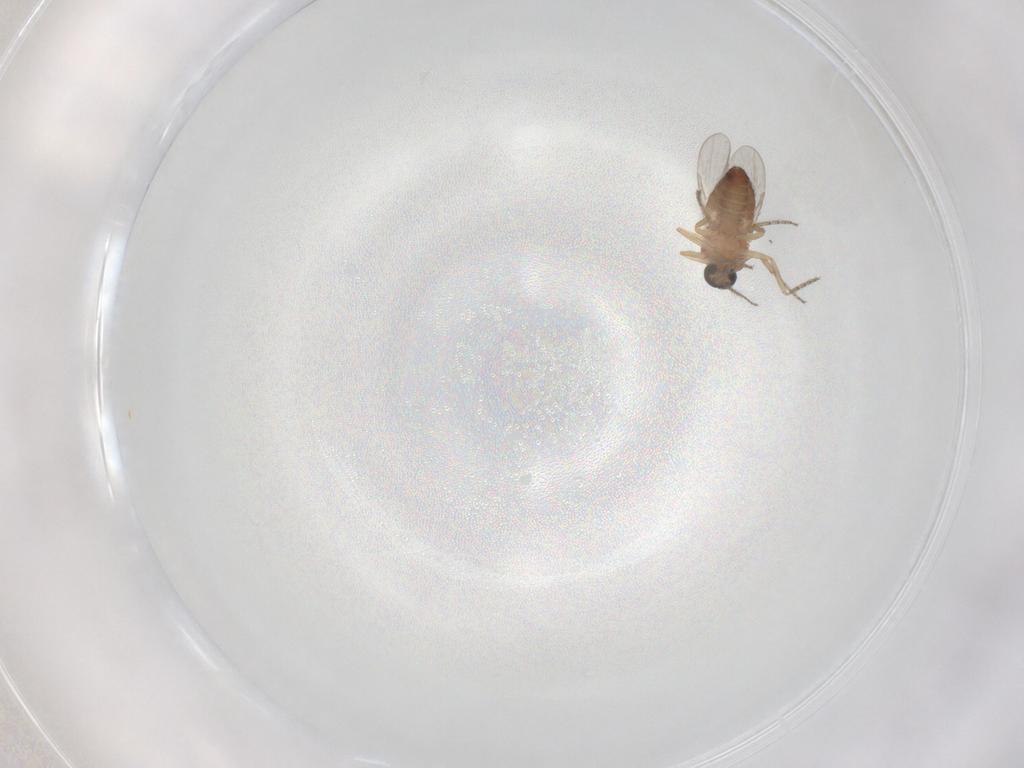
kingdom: Animalia
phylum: Arthropoda
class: Insecta
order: Diptera
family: Ceratopogonidae
